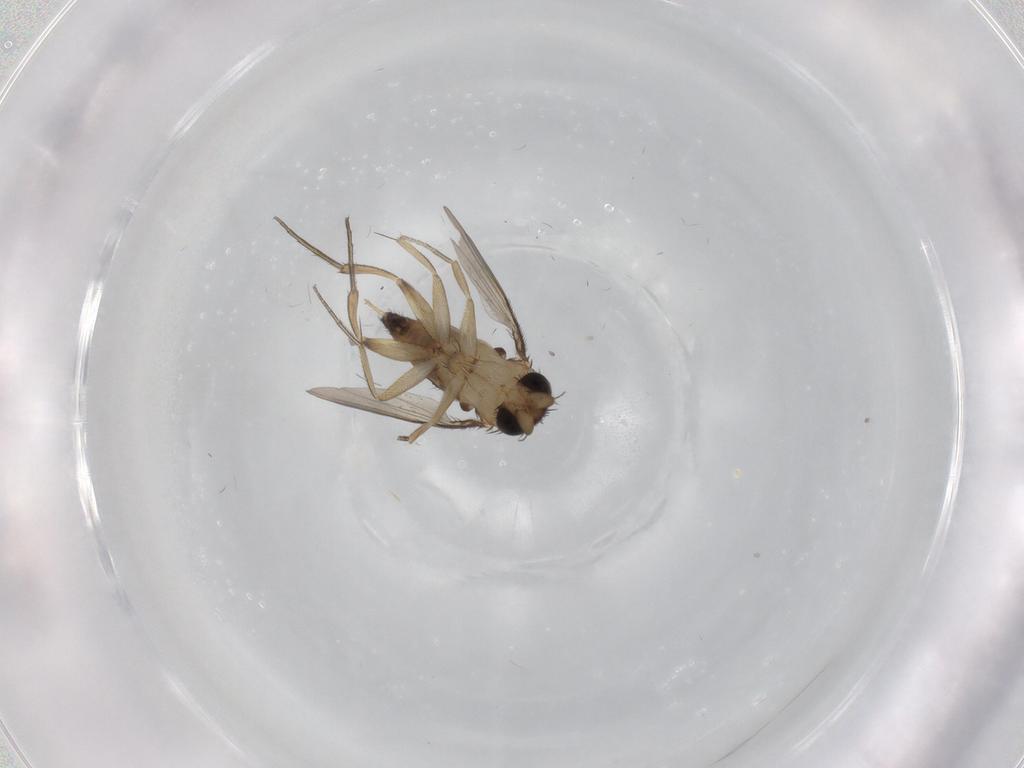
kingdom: Animalia
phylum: Arthropoda
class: Insecta
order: Diptera
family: Phoridae
